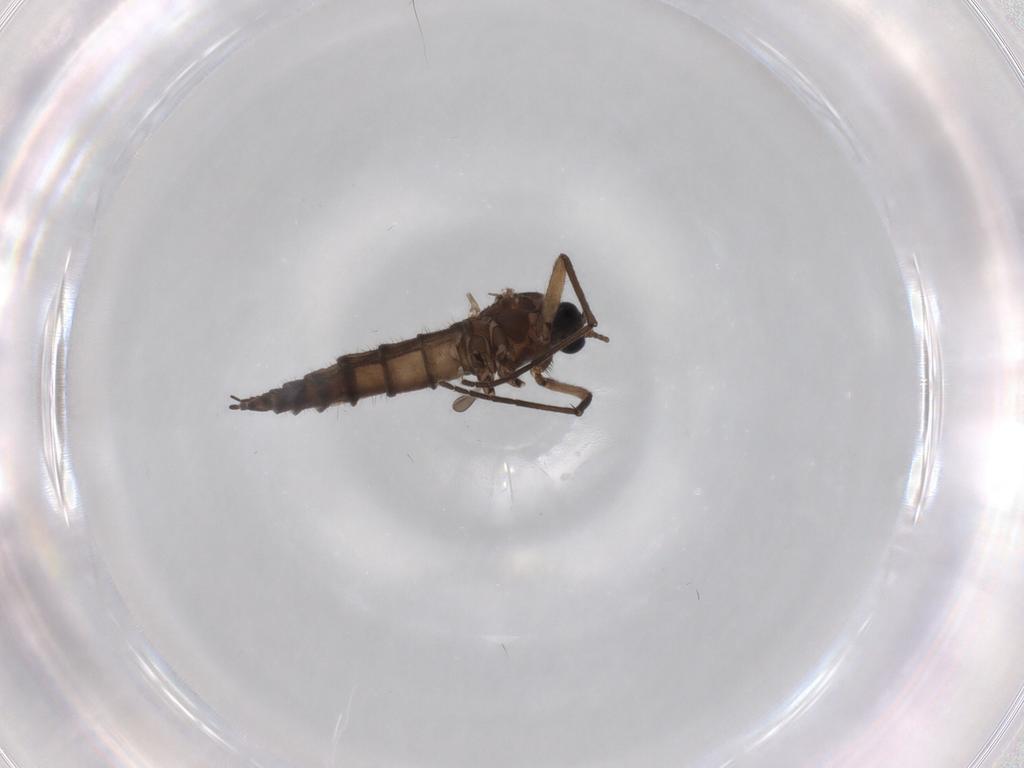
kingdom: Animalia
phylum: Arthropoda
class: Insecta
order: Diptera
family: Sciaridae
